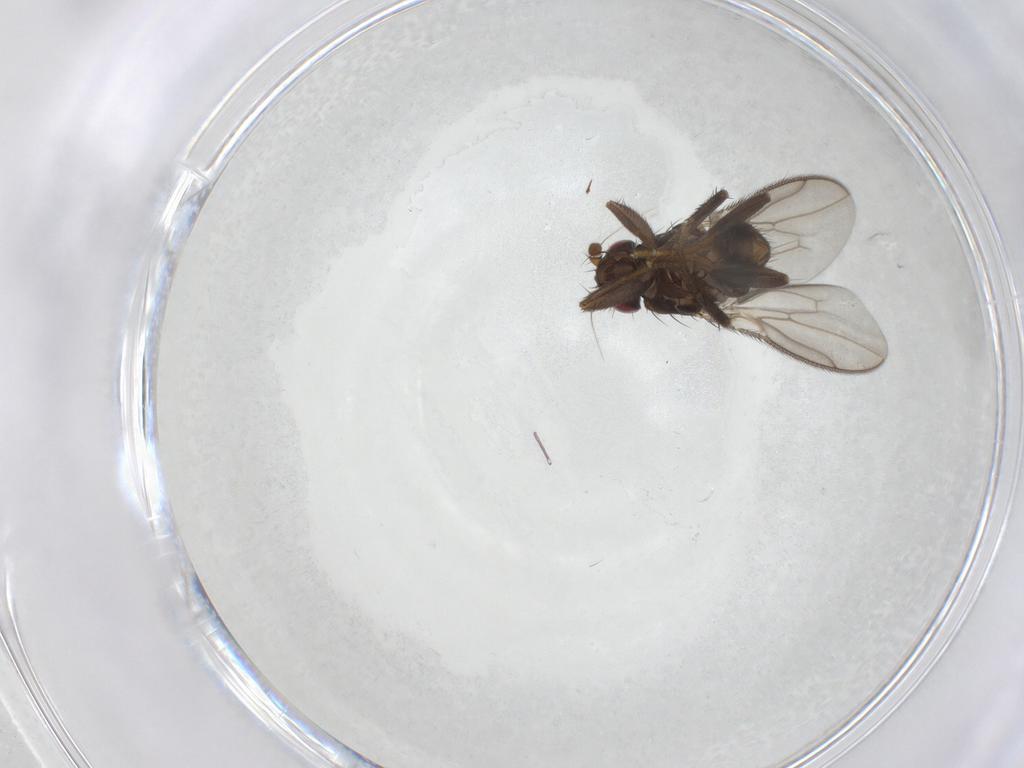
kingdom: Animalia
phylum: Arthropoda
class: Insecta
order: Diptera
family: Sphaeroceridae
